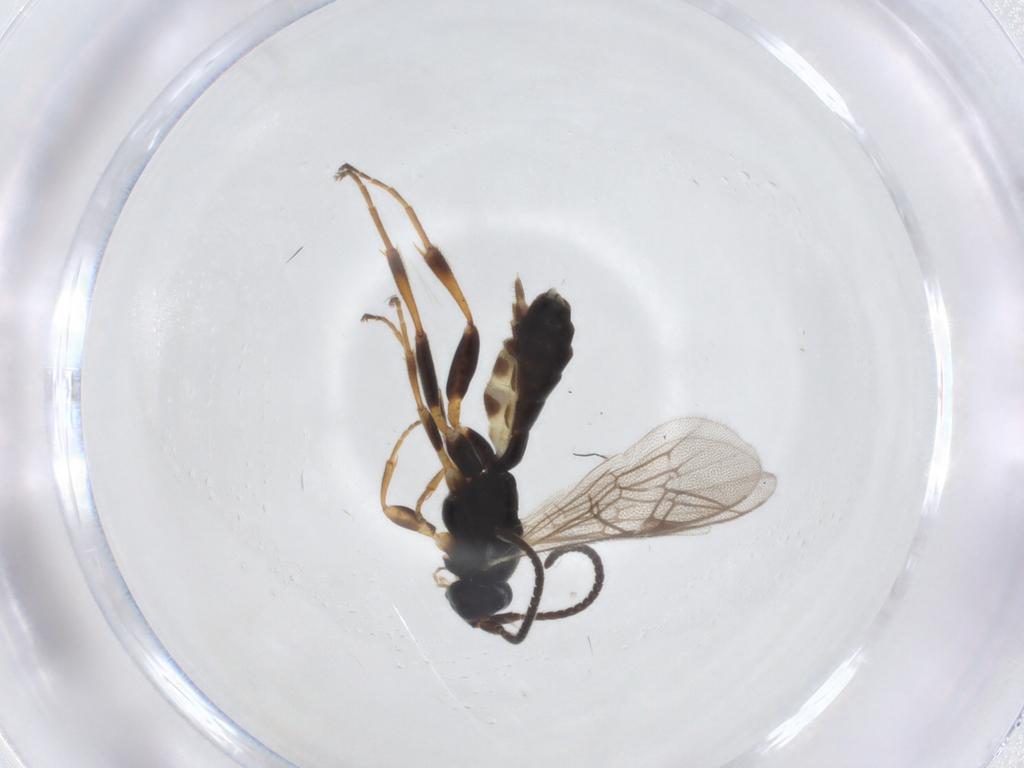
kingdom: Animalia
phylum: Arthropoda
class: Insecta
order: Hymenoptera
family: Ichneumonidae
